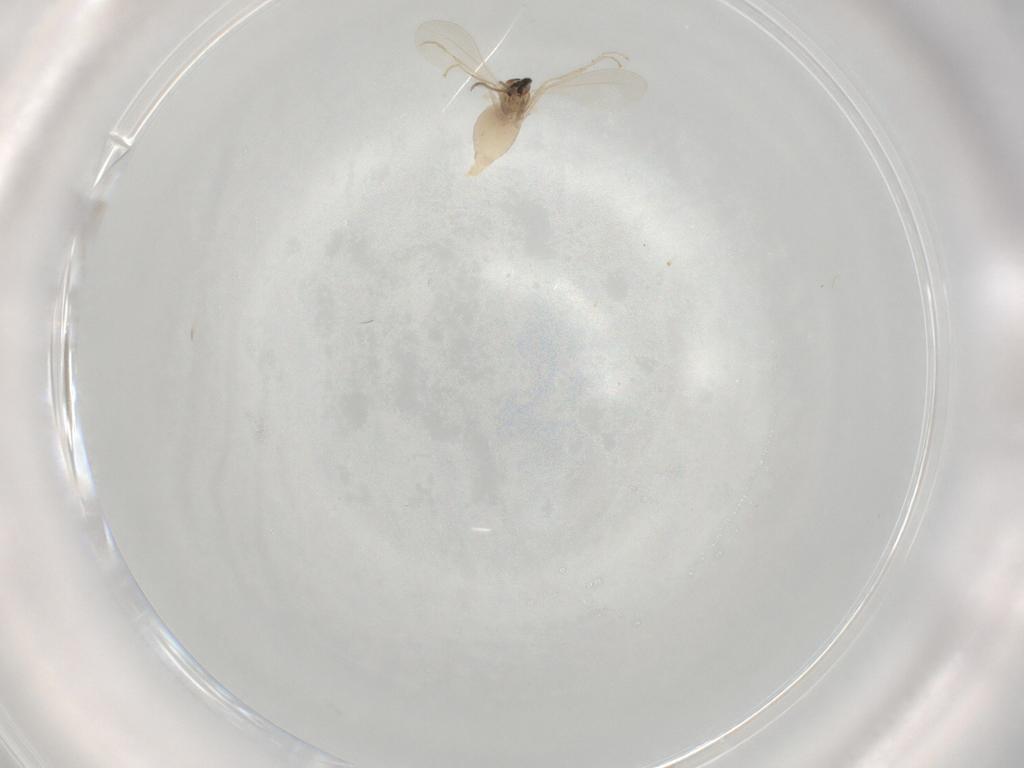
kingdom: Animalia
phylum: Arthropoda
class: Insecta
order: Diptera
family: Cecidomyiidae
